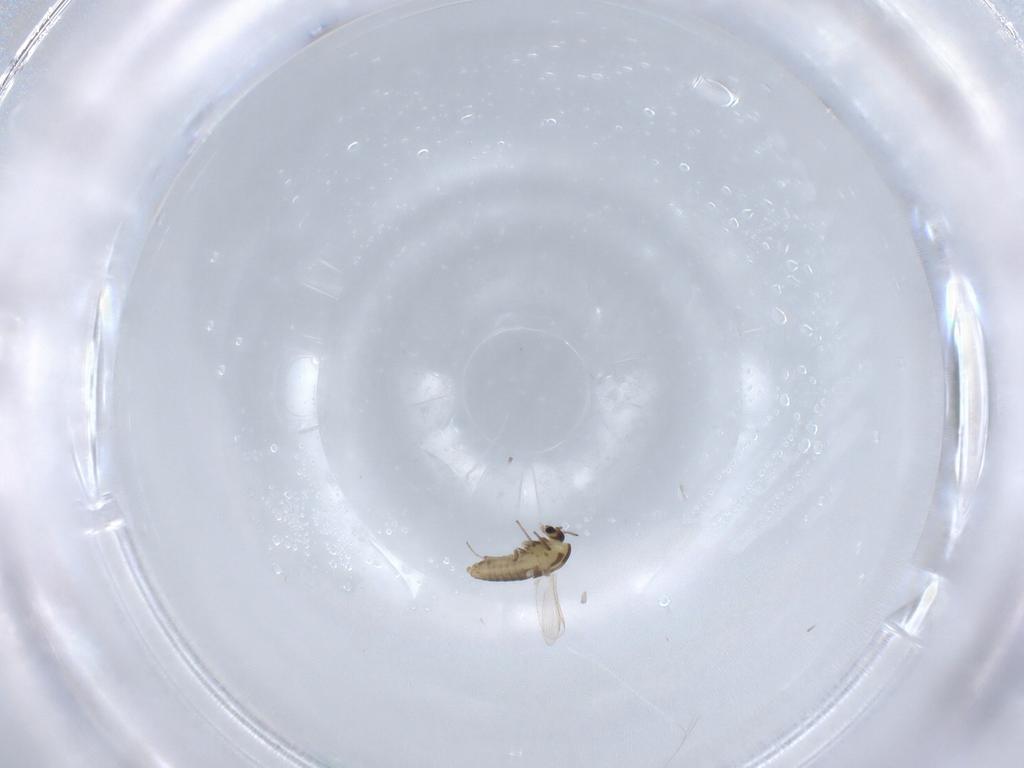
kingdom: Animalia
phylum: Arthropoda
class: Insecta
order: Diptera
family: Chironomidae
